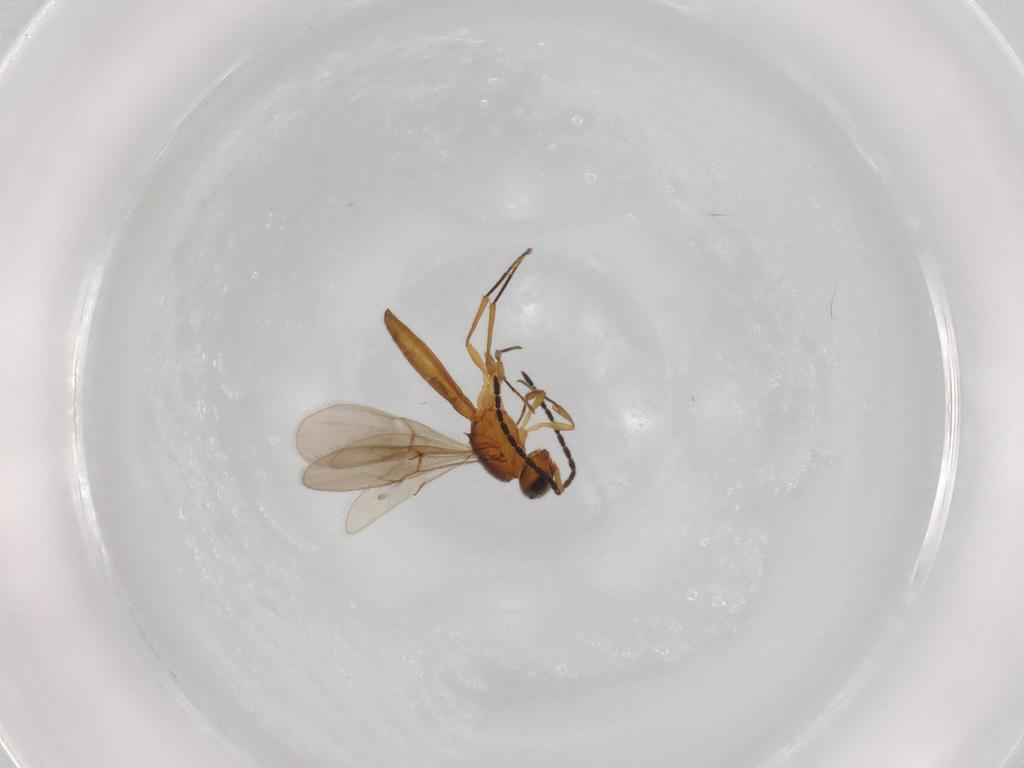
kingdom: Animalia
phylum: Arthropoda
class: Insecta
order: Hymenoptera
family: Scelionidae
